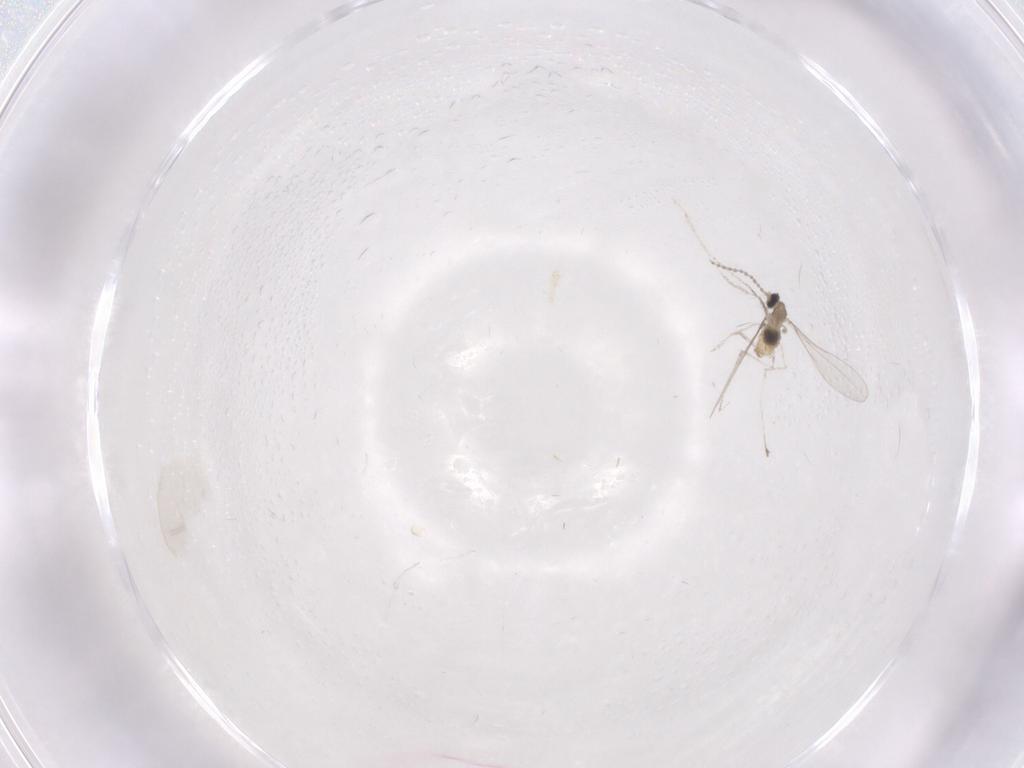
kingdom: Animalia
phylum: Arthropoda
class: Insecta
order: Diptera
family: Cecidomyiidae
